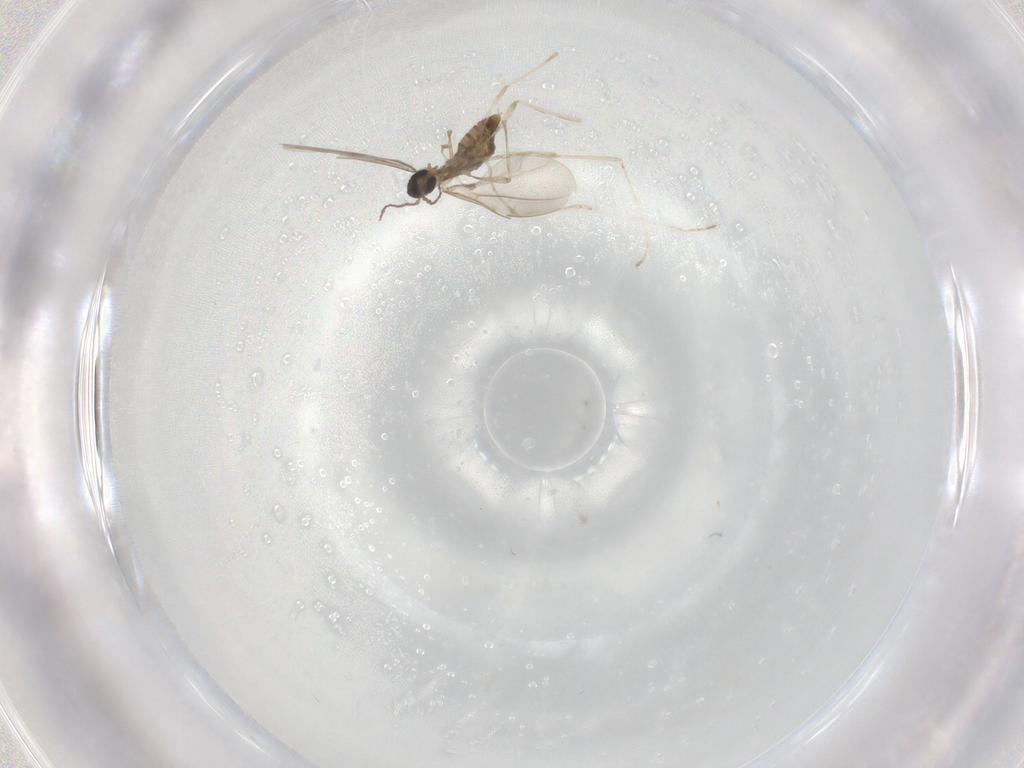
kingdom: Animalia
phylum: Arthropoda
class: Insecta
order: Diptera
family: Cecidomyiidae
